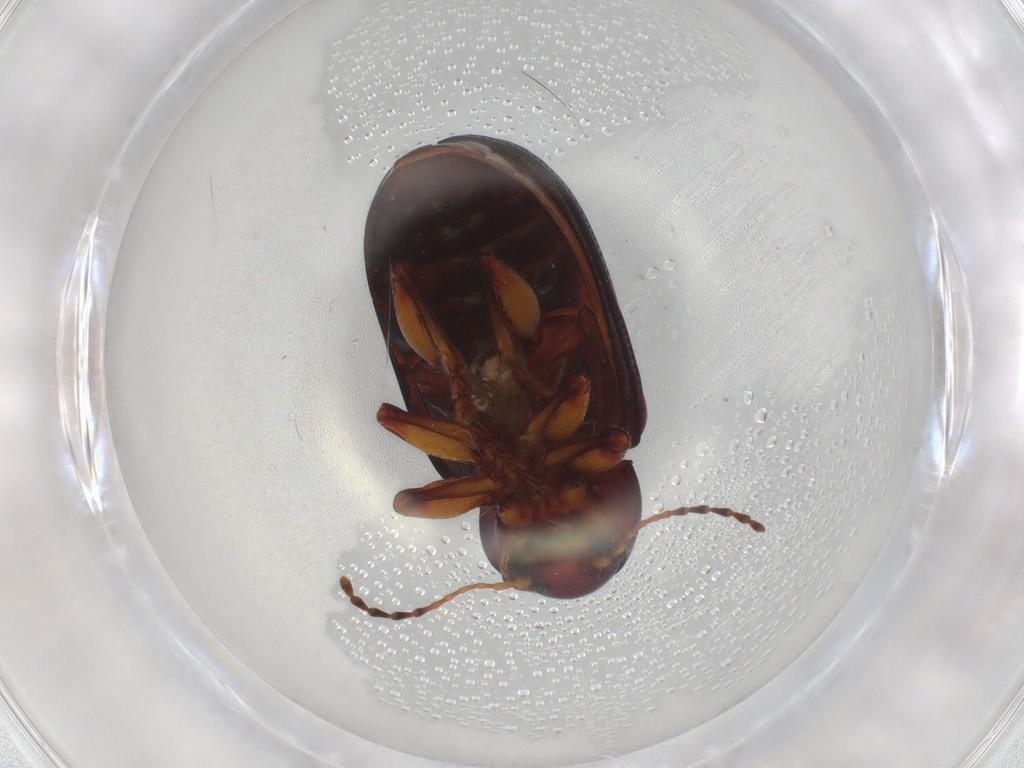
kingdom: Animalia
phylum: Arthropoda
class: Insecta
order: Coleoptera
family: Chrysomelidae
